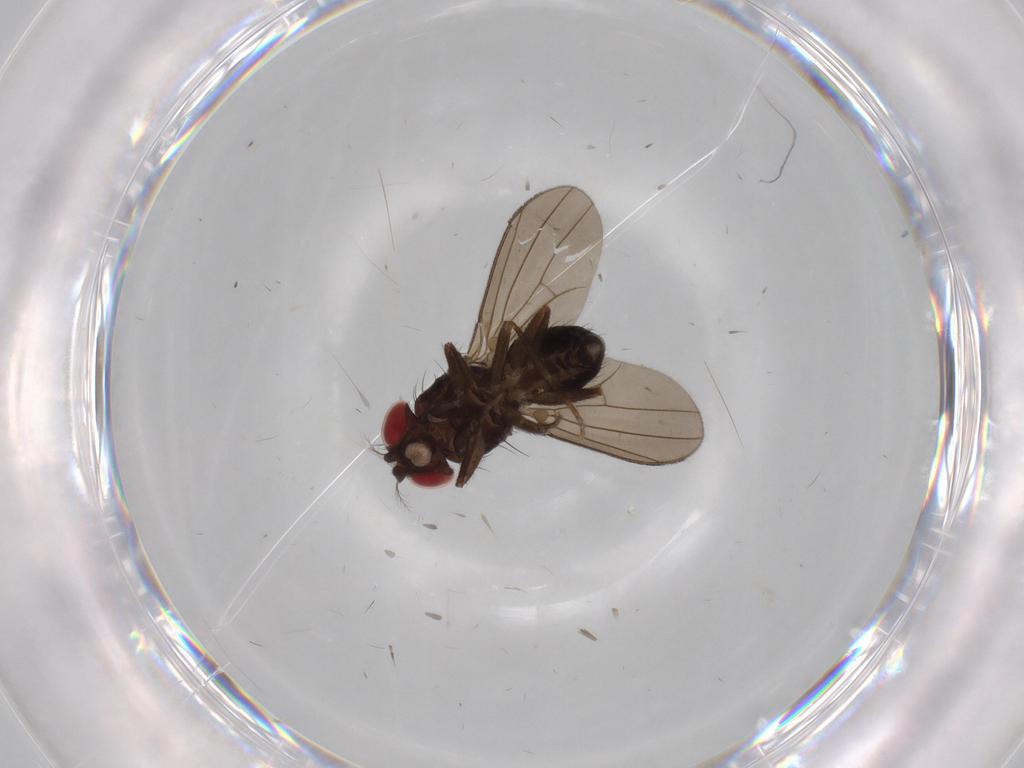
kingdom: Animalia
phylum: Arthropoda
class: Insecta
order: Diptera
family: Drosophilidae
